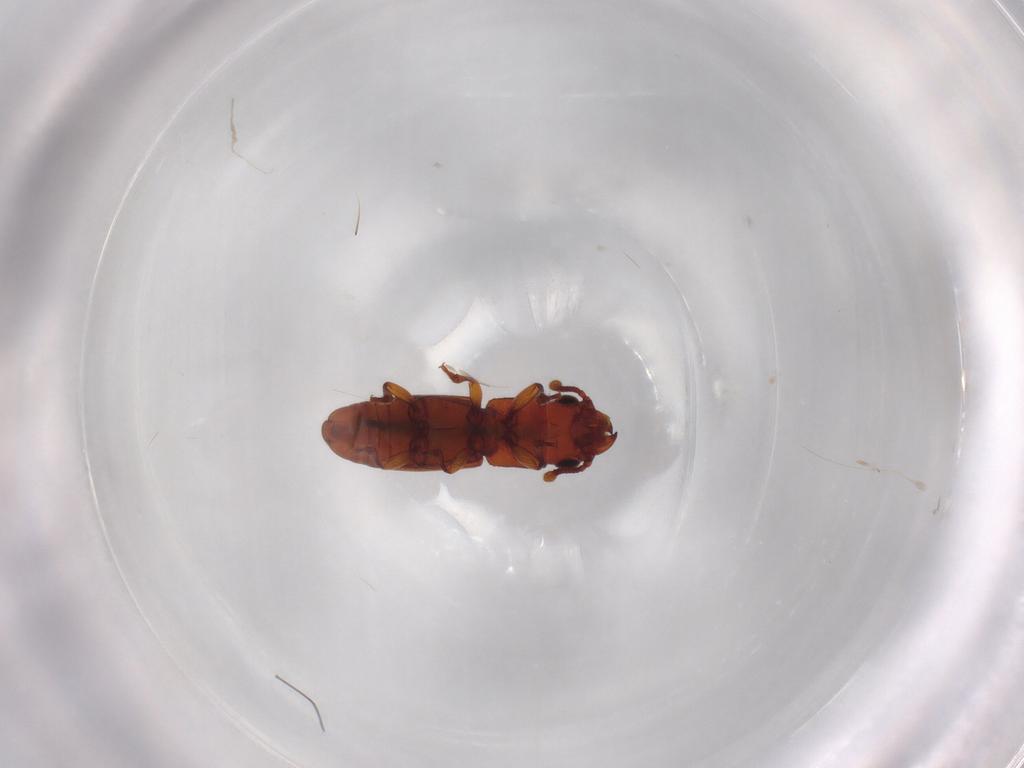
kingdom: Animalia
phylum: Arthropoda
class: Insecta
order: Coleoptera
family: Monotomidae
